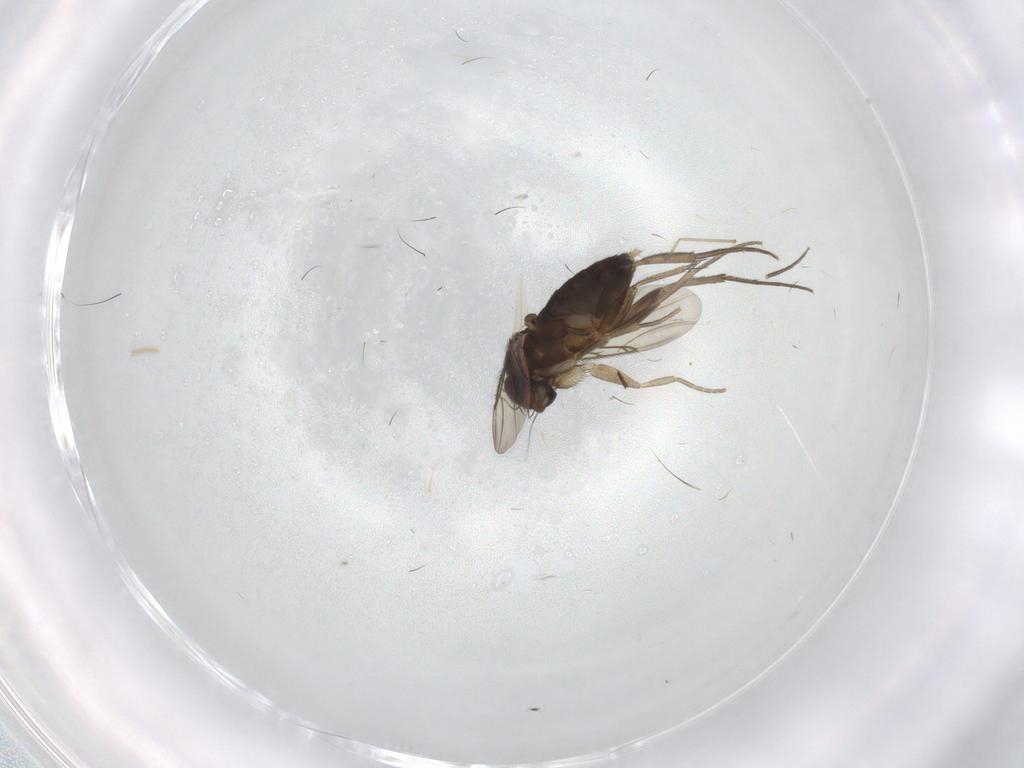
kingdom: Animalia
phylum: Arthropoda
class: Insecta
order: Diptera
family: Phoridae
